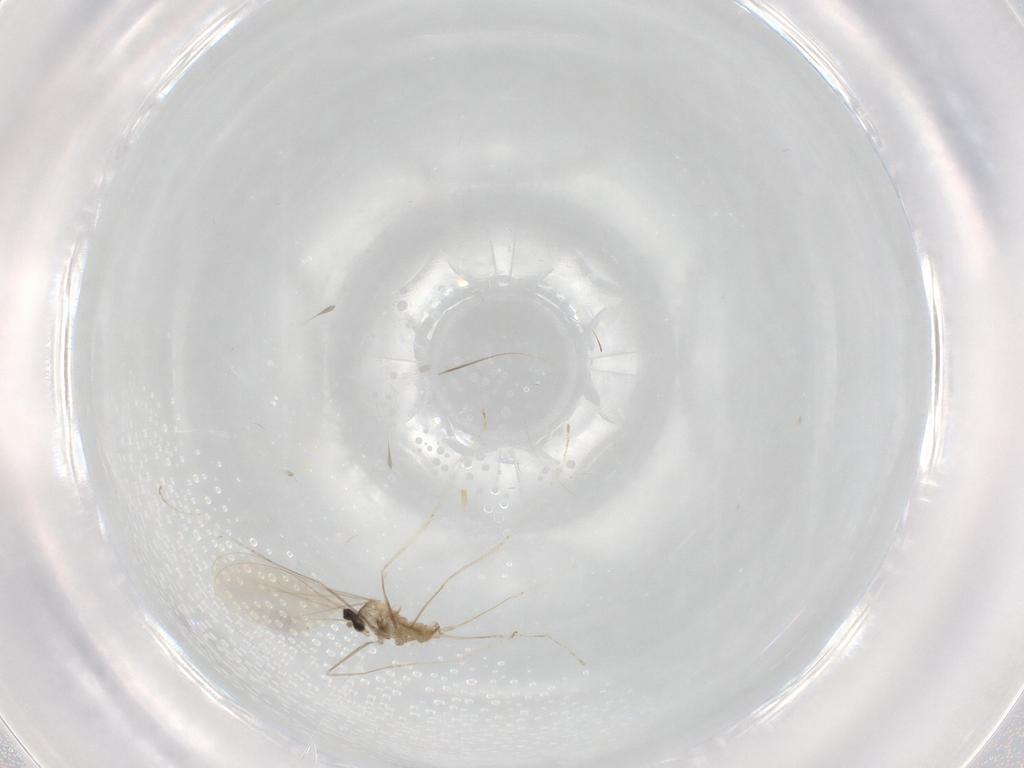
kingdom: Animalia
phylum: Arthropoda
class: Insecta
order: Diptera
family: Cecidomyiidae
